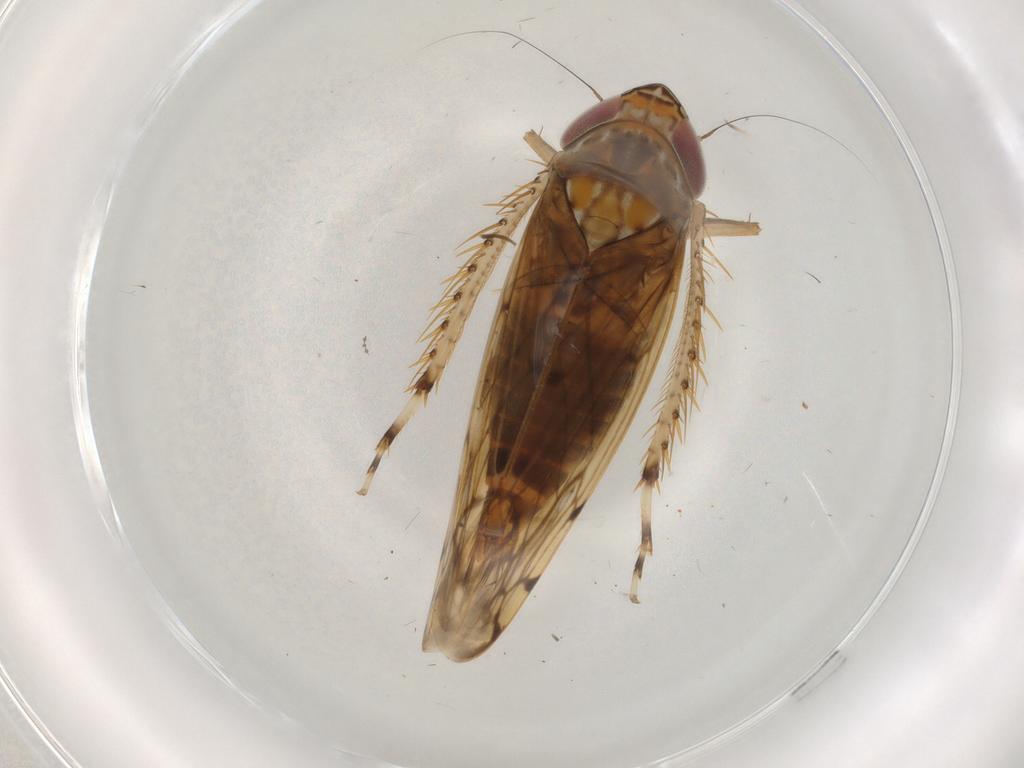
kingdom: Animalia
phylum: Arthropoda
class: Insecta
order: Hemiptera
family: Cicadellidae
